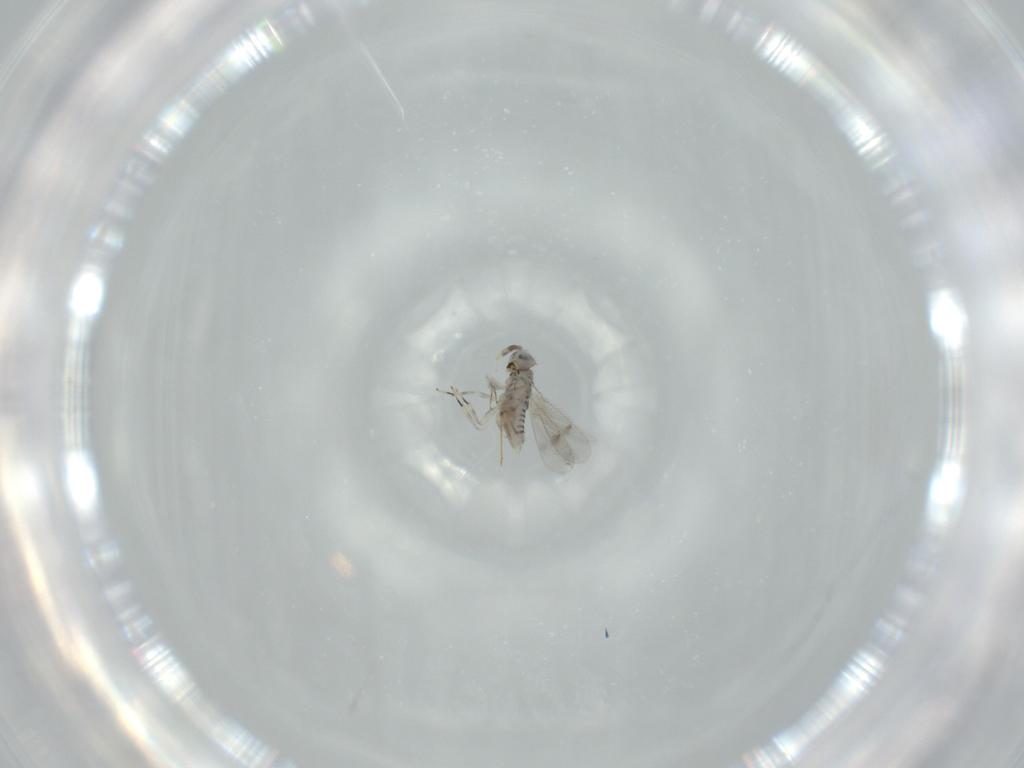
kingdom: Animalia
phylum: Arthropoda
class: Insecta
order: Hymenoptera
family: Aphelinidae
